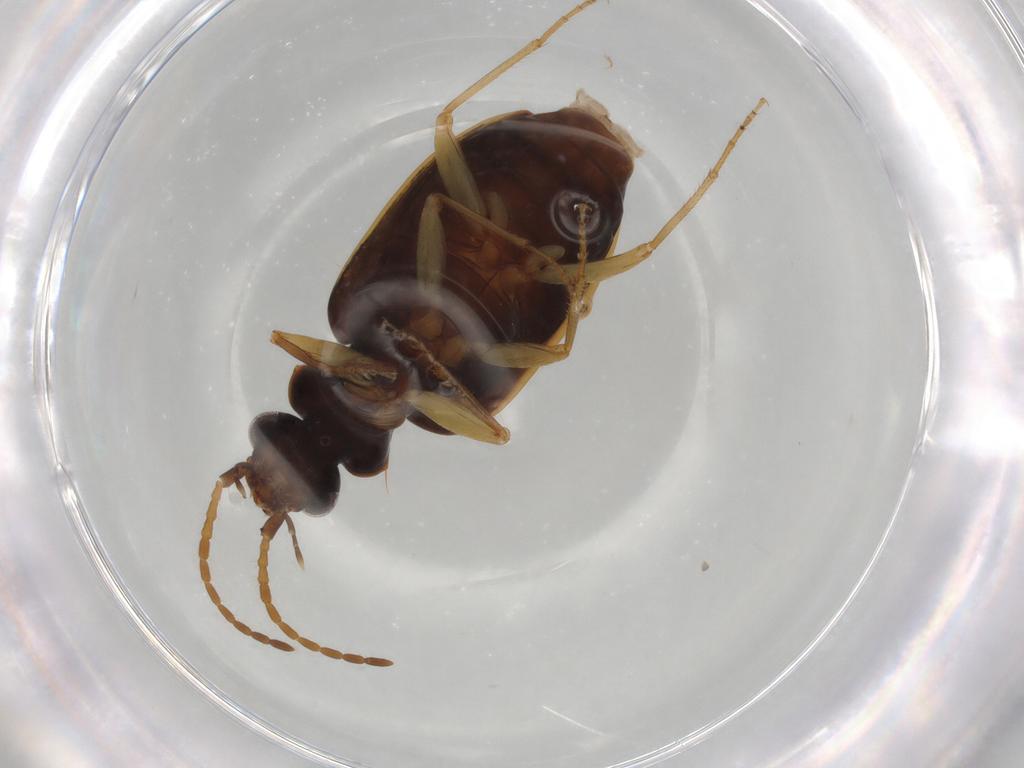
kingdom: Animalia
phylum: Arthropoda
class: Insecta
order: Coleoptera
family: Carabidae
